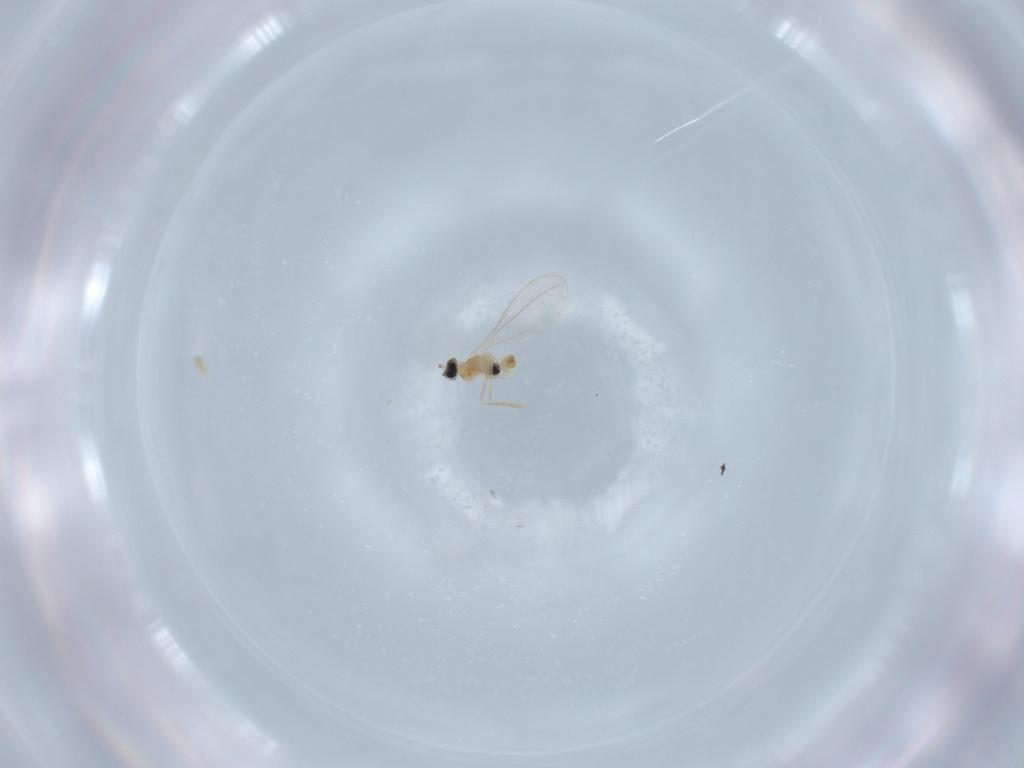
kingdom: Animalia
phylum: Arthropoda
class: Insecta
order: Diptera
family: Cecidomyiidae
